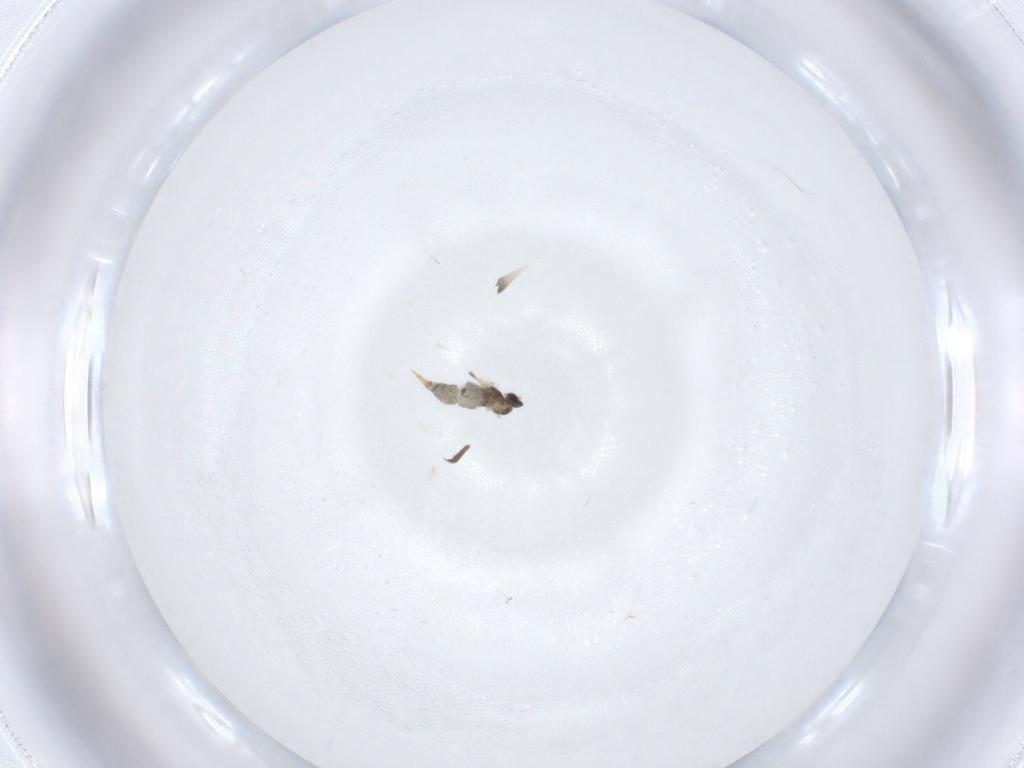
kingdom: Animalia
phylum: Arthropoda
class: Insecta
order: Diptera
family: Limoniidae
